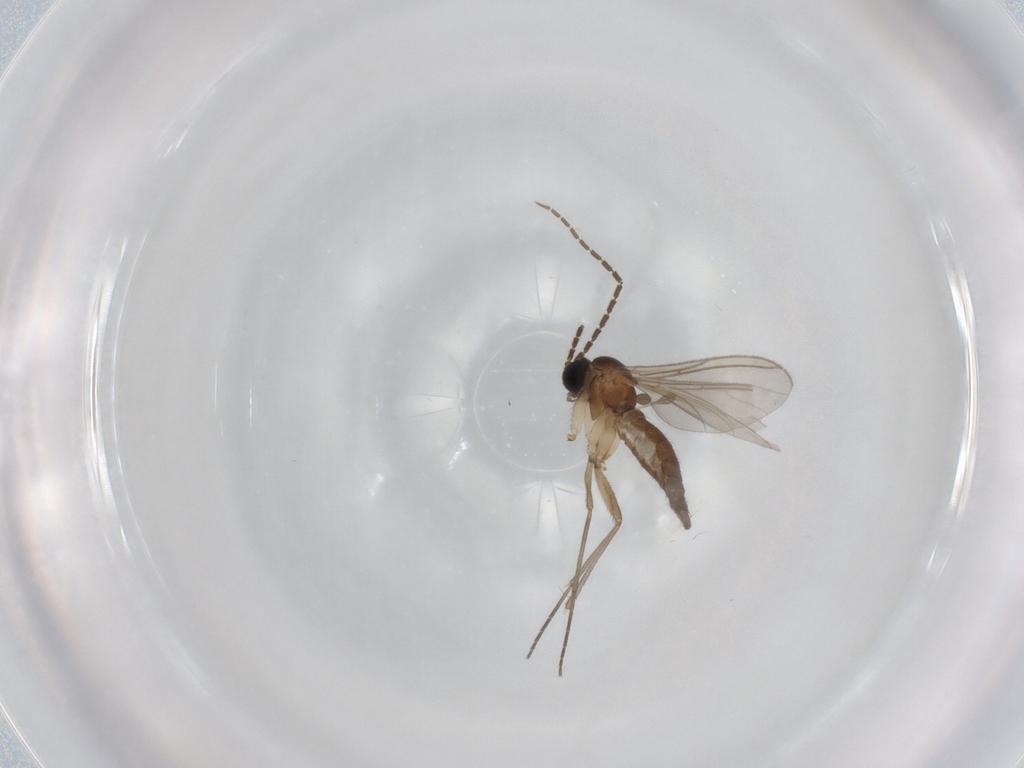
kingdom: Animalia
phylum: Arthropoda
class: Insecta
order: Diptera
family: Sciaridae
